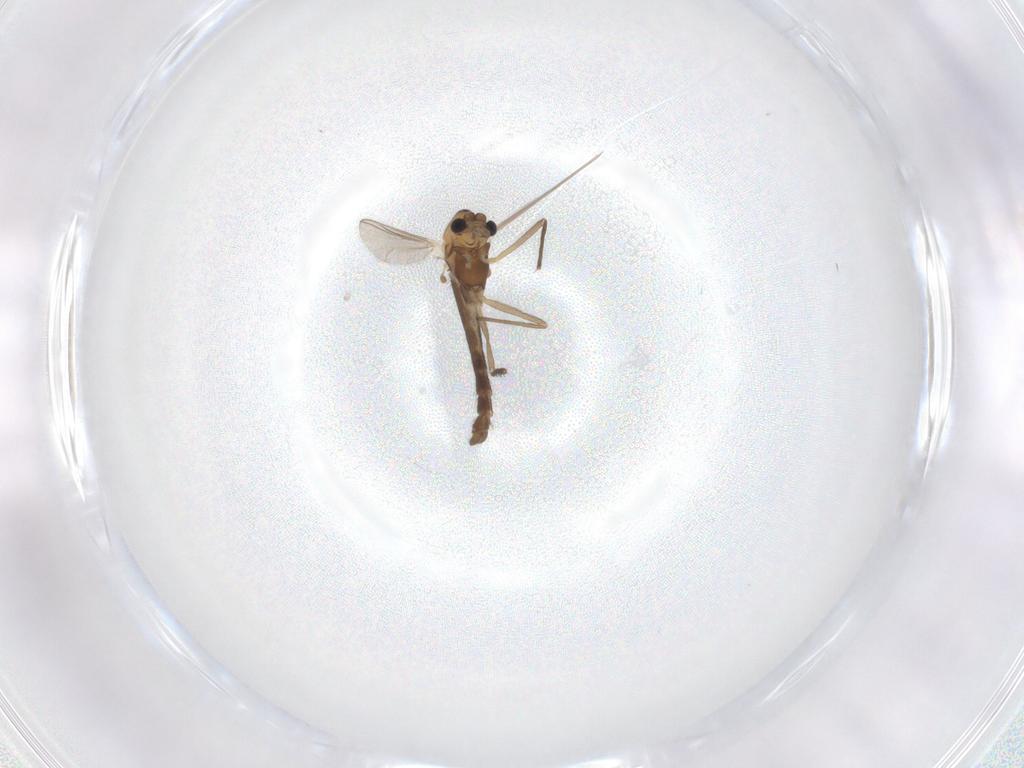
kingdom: Animalia
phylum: Arthropoda
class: Insecta
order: Diptera
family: Chironomidae
